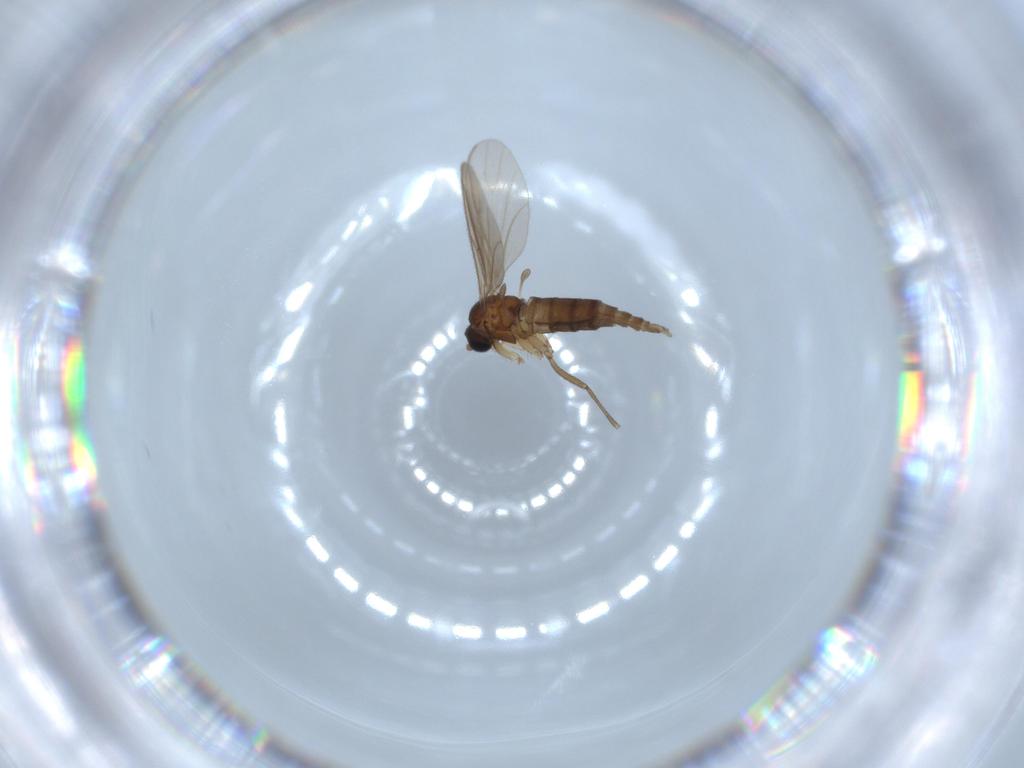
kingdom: Animalia
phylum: Arthropoda
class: Insecta
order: Diptera
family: Sciaridae
